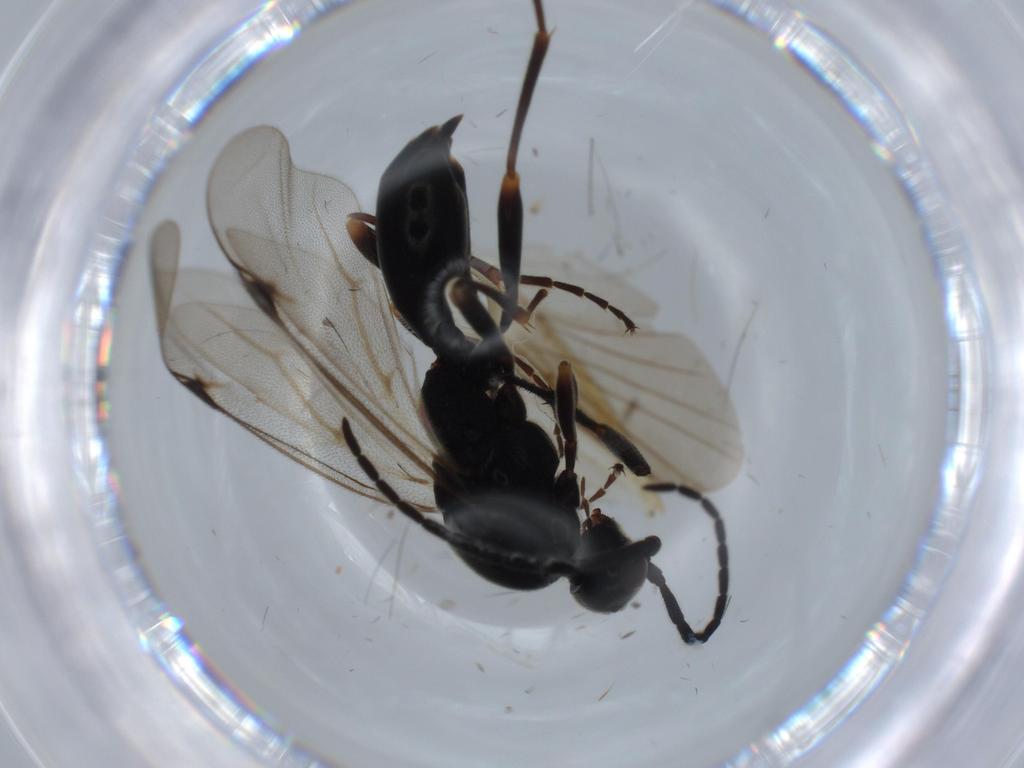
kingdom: Animalia
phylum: Arthropoda
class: Insecta
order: Hymenoptera
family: Proctotrupidae
